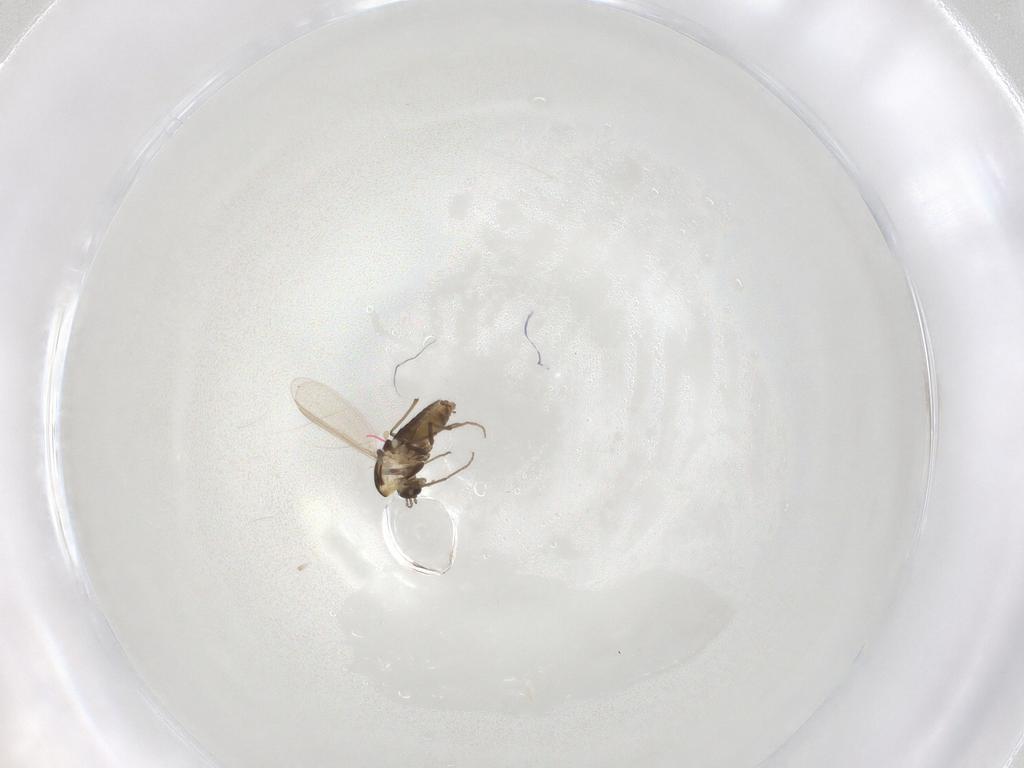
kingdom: Animalia
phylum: Arthropoda
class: Insecta
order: Diptera
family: Chironomidae
